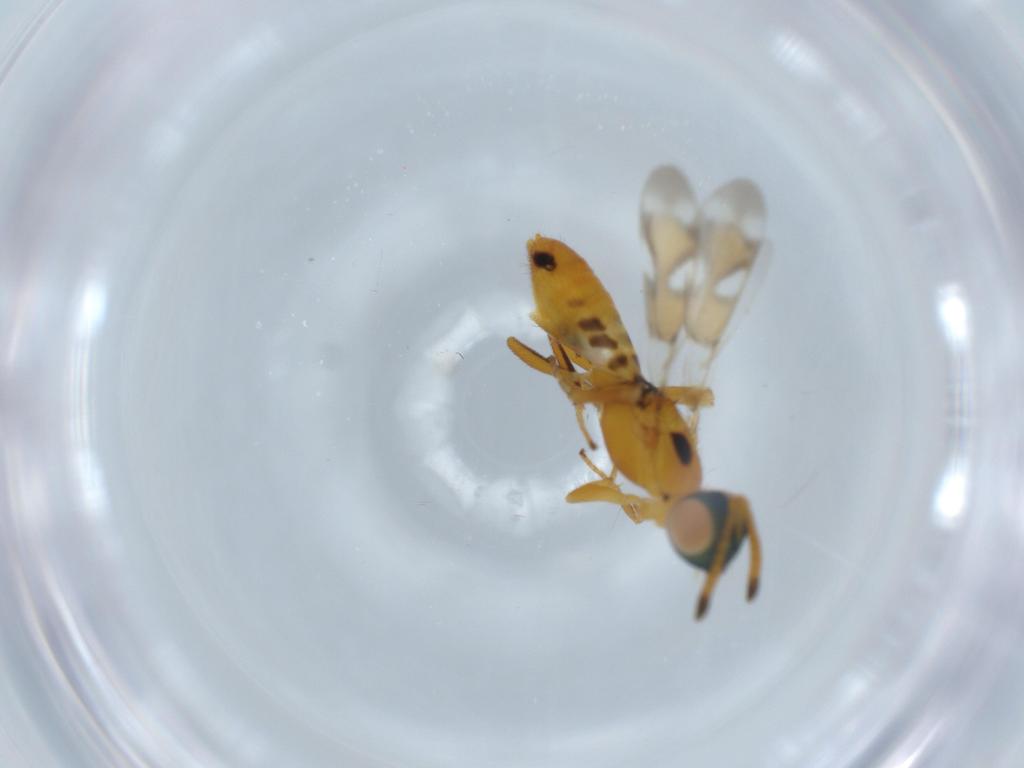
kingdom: Animalia
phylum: Arthropoda
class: Insecta
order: Hymenoptera
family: Eupelmidae
